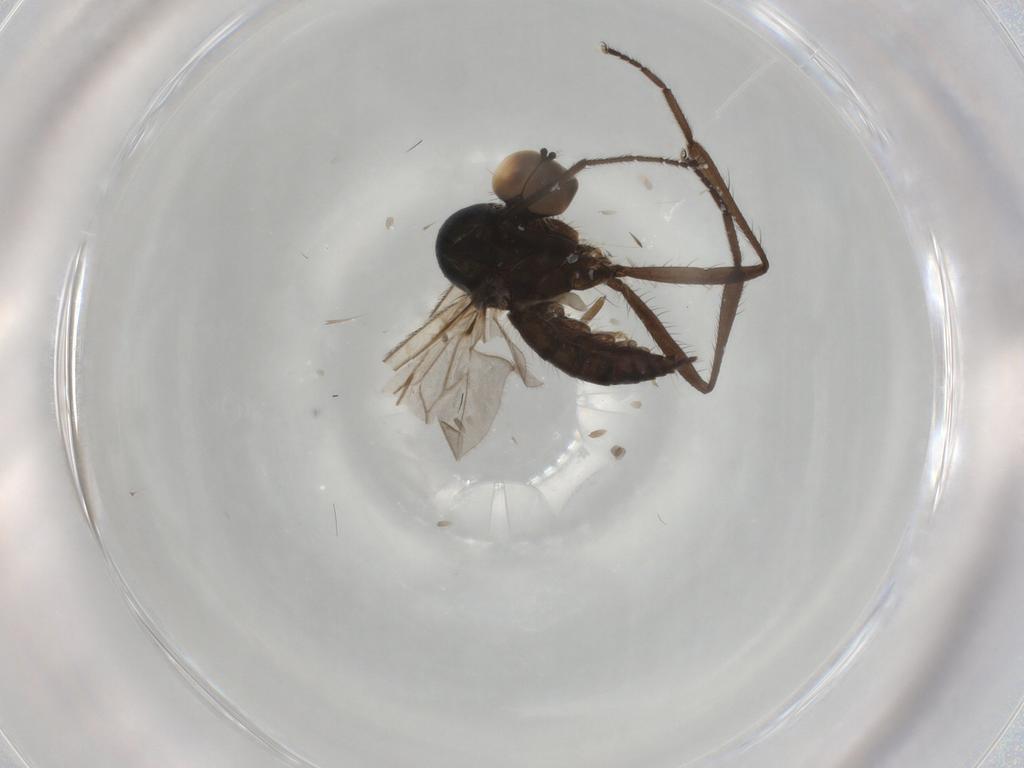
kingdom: Animalia
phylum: Arthropoda
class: Insecta
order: Diptera
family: Hybotidae
